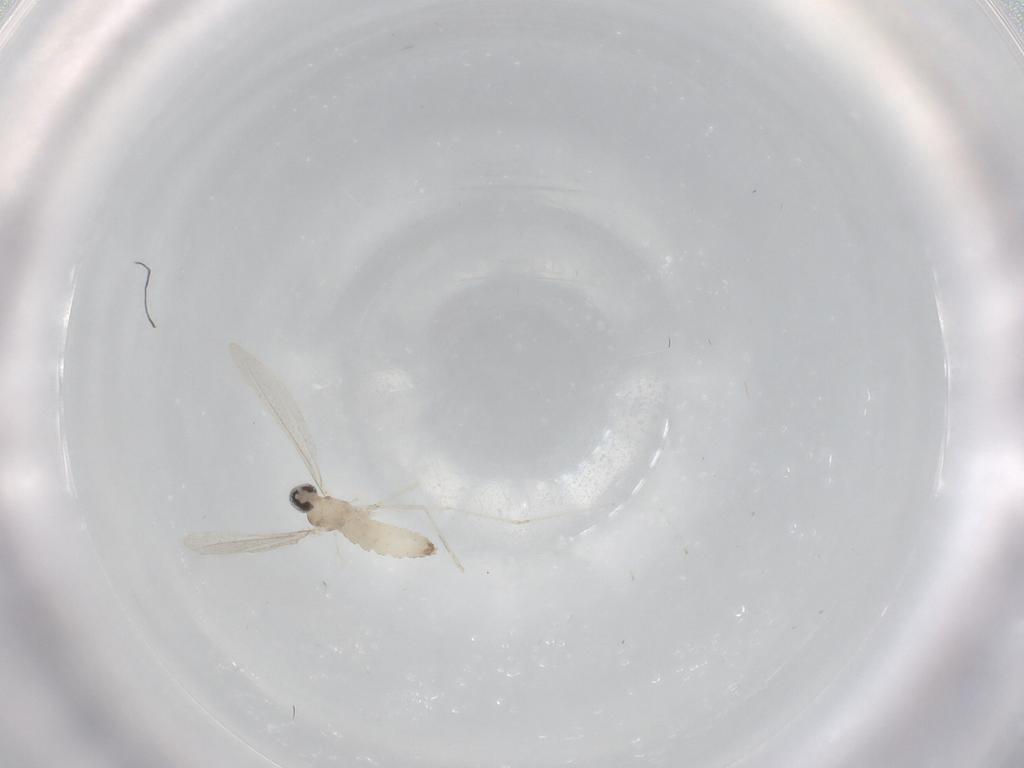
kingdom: Animalia
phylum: Arthropoda
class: Insecta
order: Diptera
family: Cecidomyiidae
